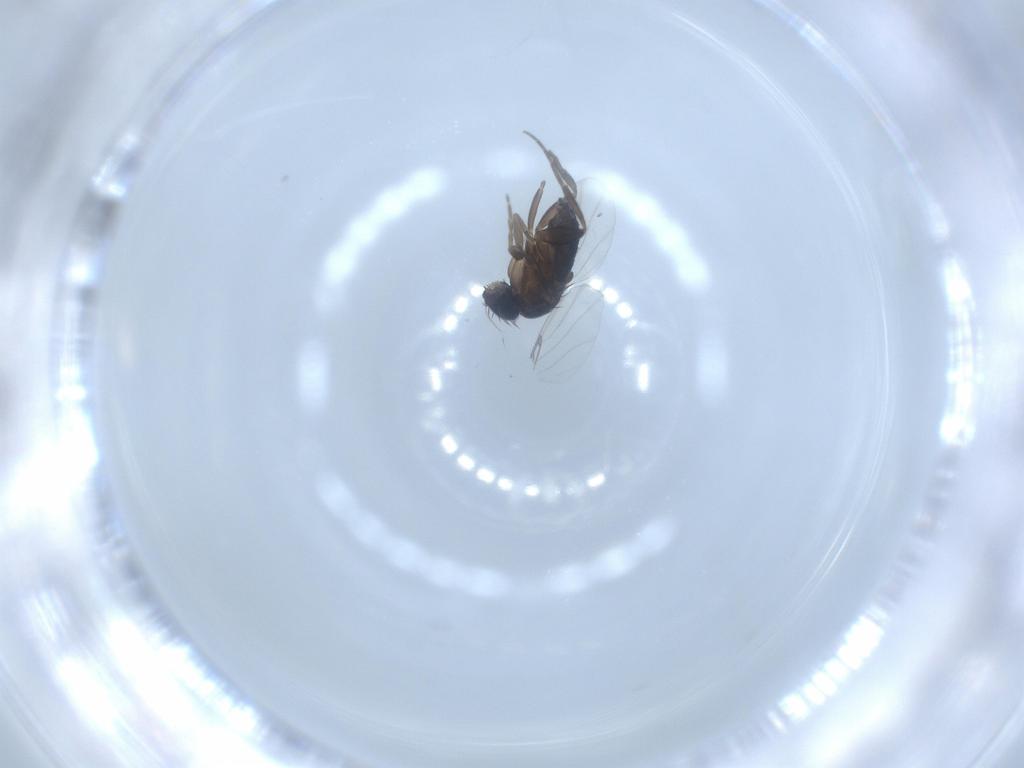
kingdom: Animalia
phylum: Arthropoda
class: Insecta
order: Diptera
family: Phoridae
